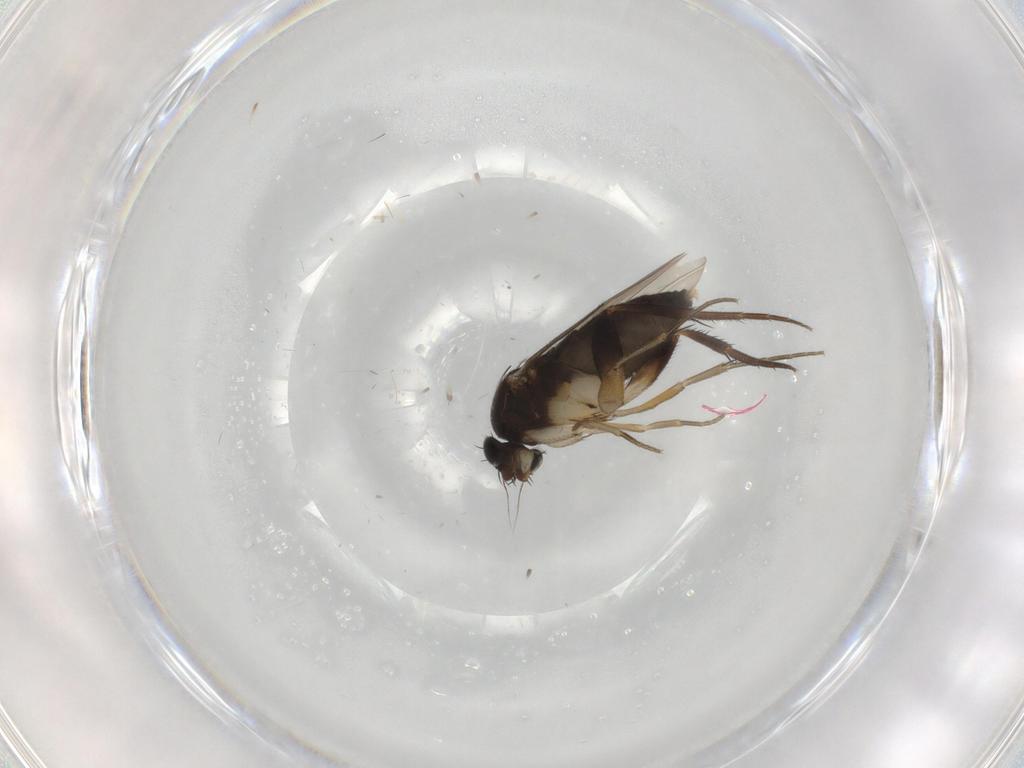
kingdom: Animalia
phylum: Arthropoda
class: Insecta
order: Diptera
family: Phoridae
